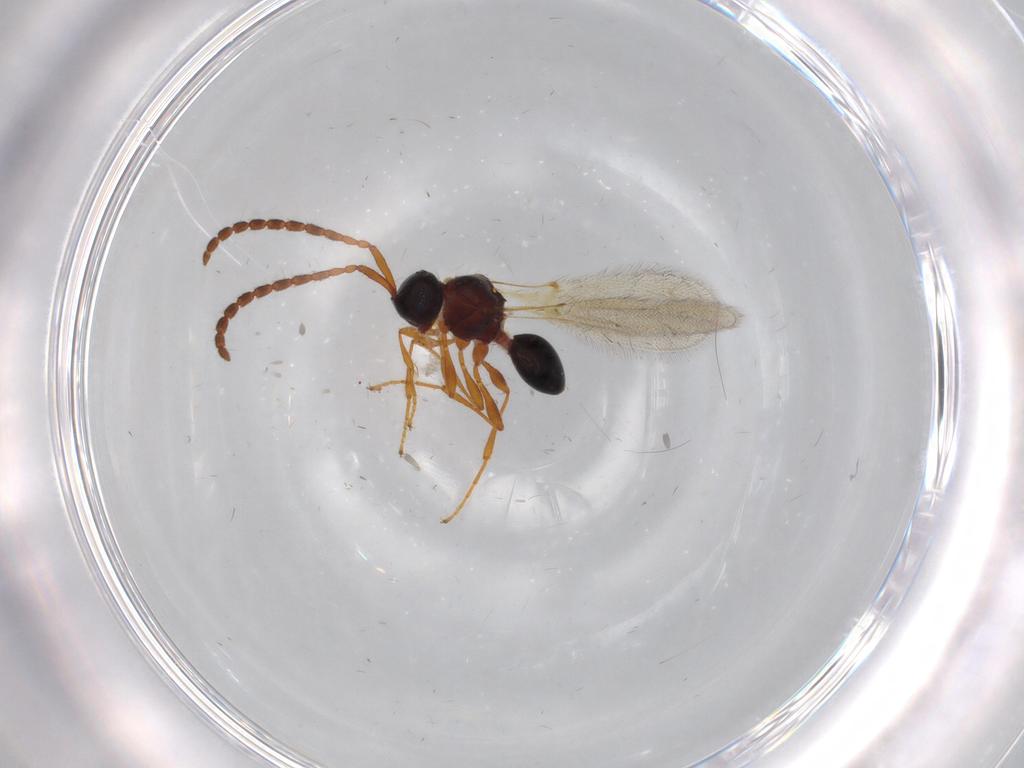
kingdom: Animalia
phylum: Arthropoda
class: Insecta
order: Hymenoptera
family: Diapriidae
